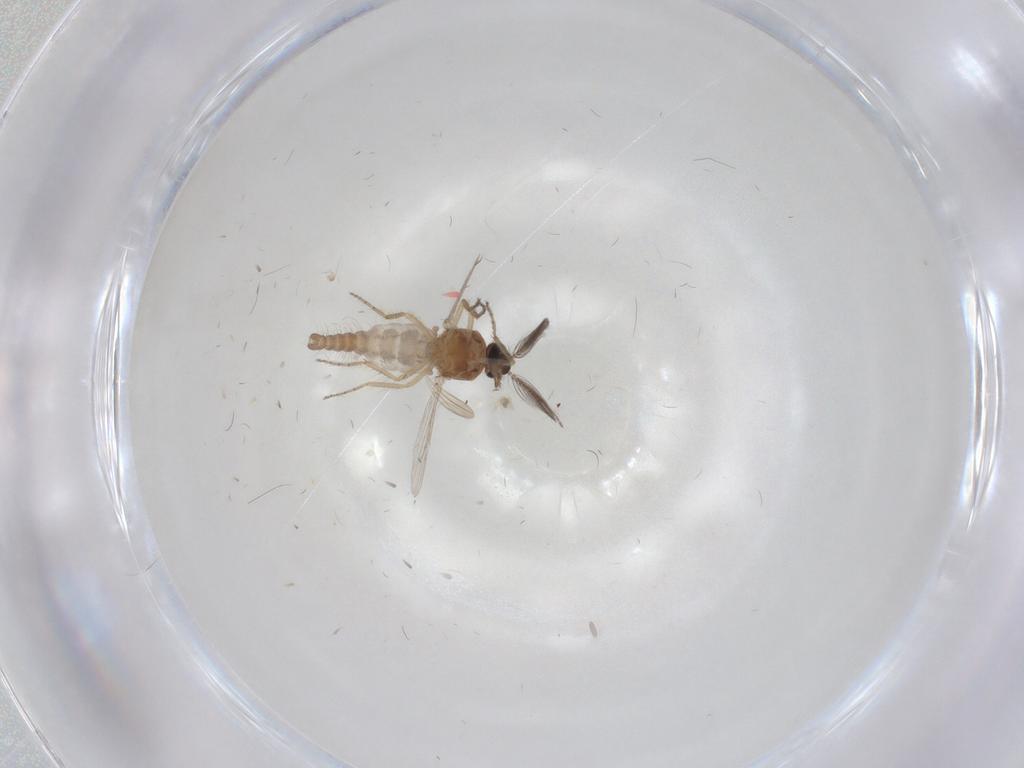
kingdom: Animalia
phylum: Arthropoda
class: Insecta
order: Diptera
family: Ceratopogonidae
